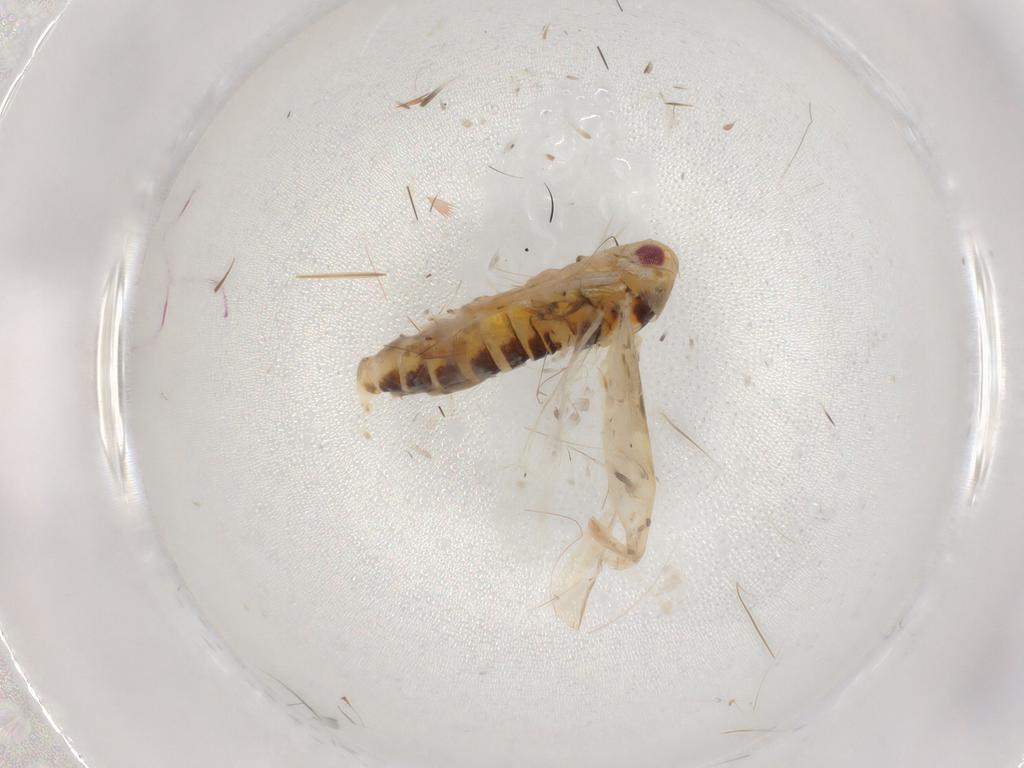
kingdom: Animalia
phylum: Arthropoda
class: Insecta
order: Hemiptera
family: Cicadellidae
